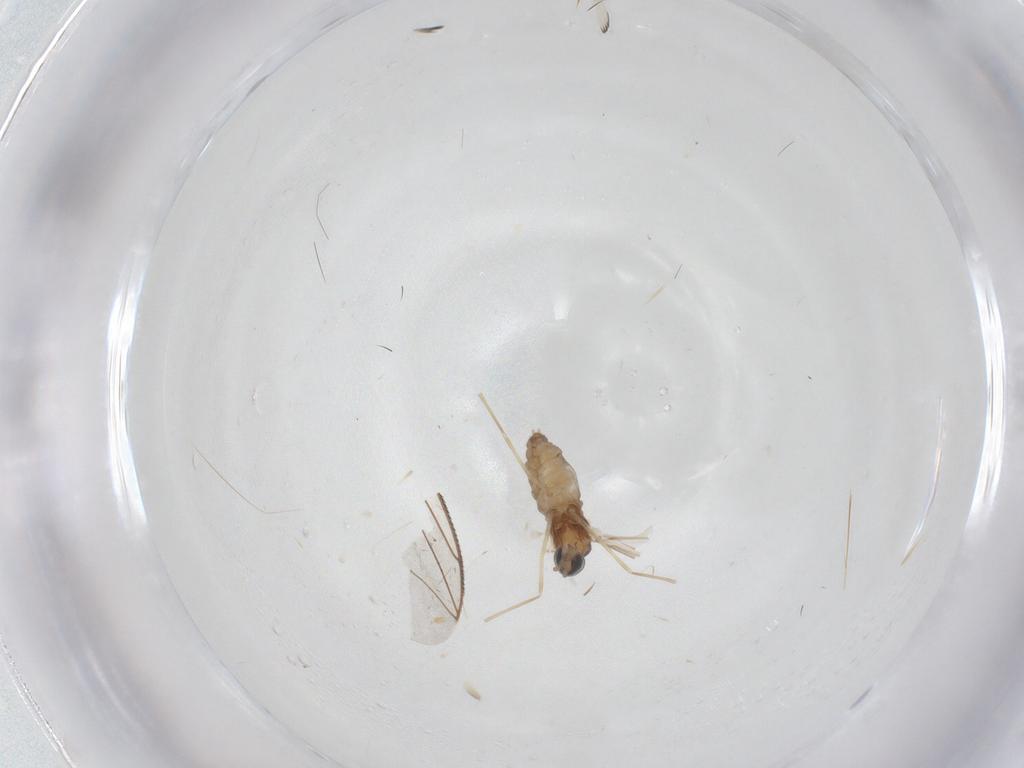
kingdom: Animalia
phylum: Arthropoda
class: Insecta
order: Diptera
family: Cecidomyiidae
